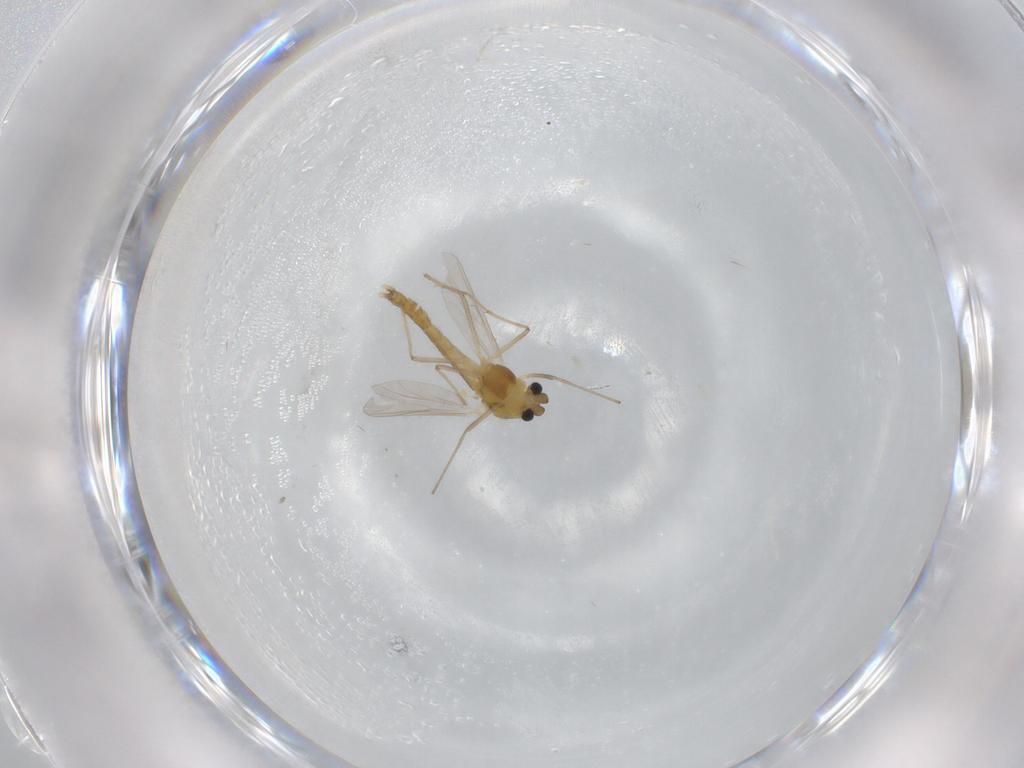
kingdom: Animalia
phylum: Arthropoda
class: Insecta
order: Diptera
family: Chironomidae
